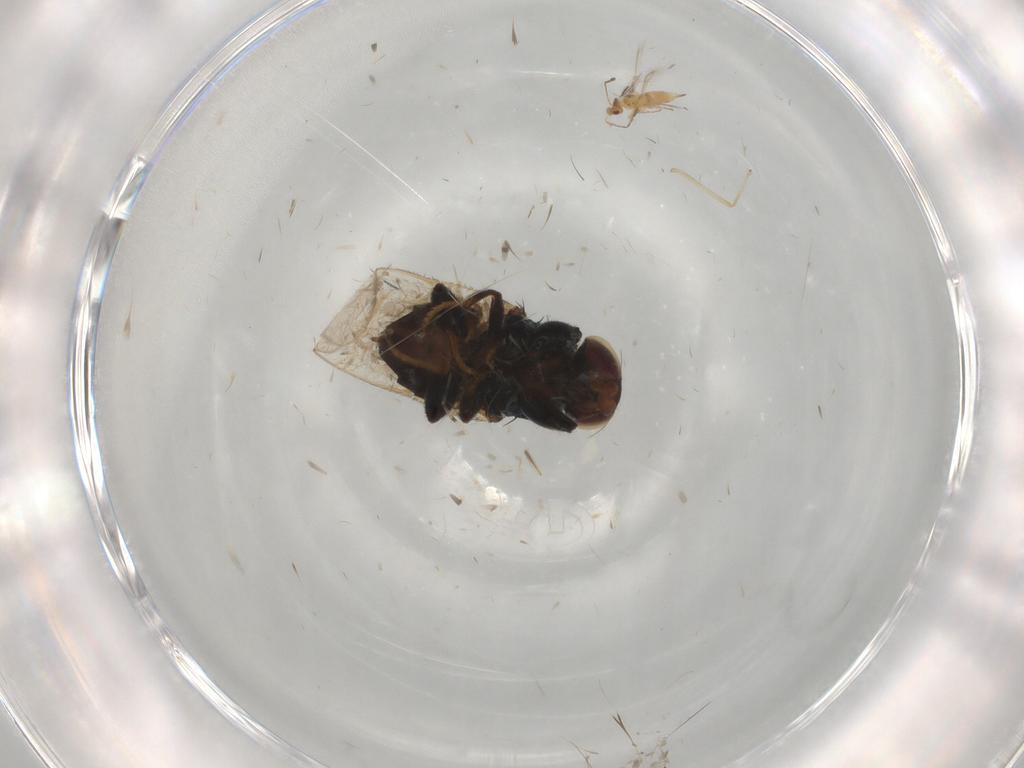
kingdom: Animalia
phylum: Arthropoda
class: Insecta
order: Diptera
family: Chloropidae
